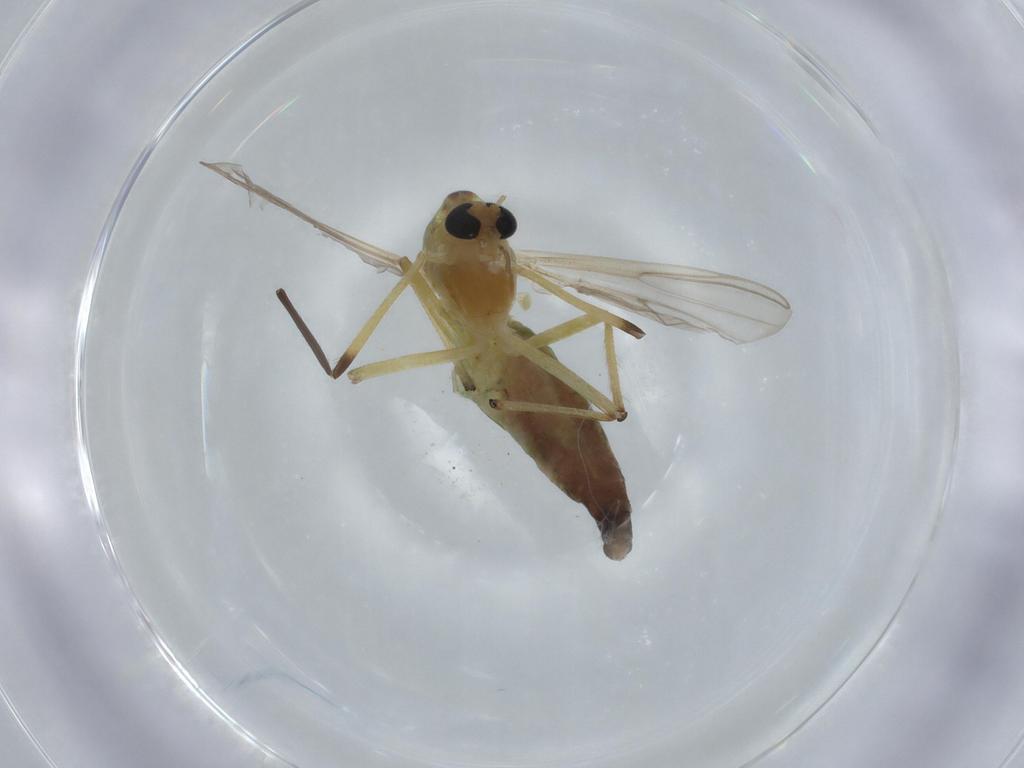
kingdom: Animalia
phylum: Arthropoda
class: Insecta
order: Diptera
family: Chironomidae
